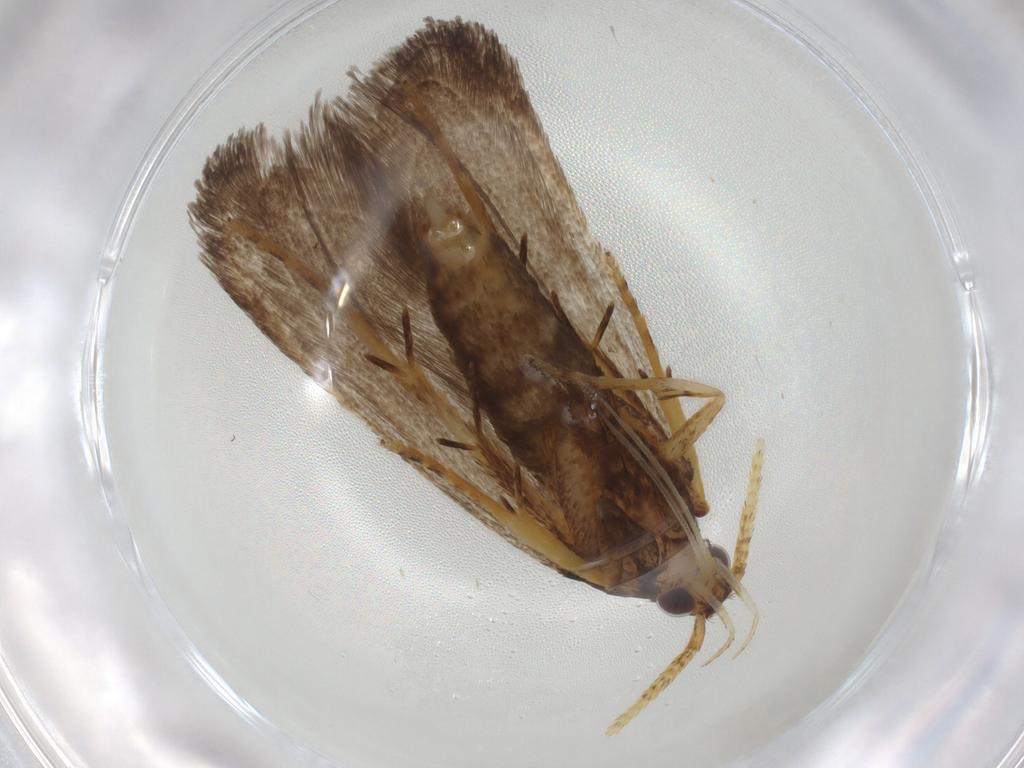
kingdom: Animalia
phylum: Arthropoda
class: Insecta
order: Lepidoptera
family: Lecithoceridae
